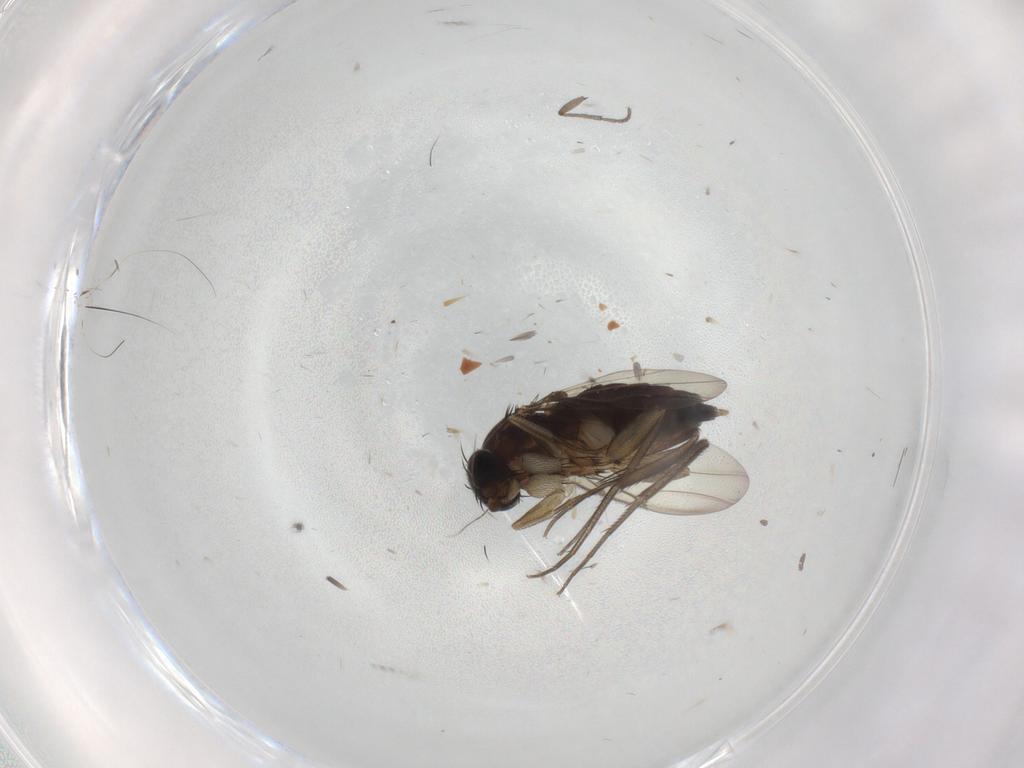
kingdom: Animalia
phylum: Arthropoda
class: Insecta
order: Diptera
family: Phoridae
